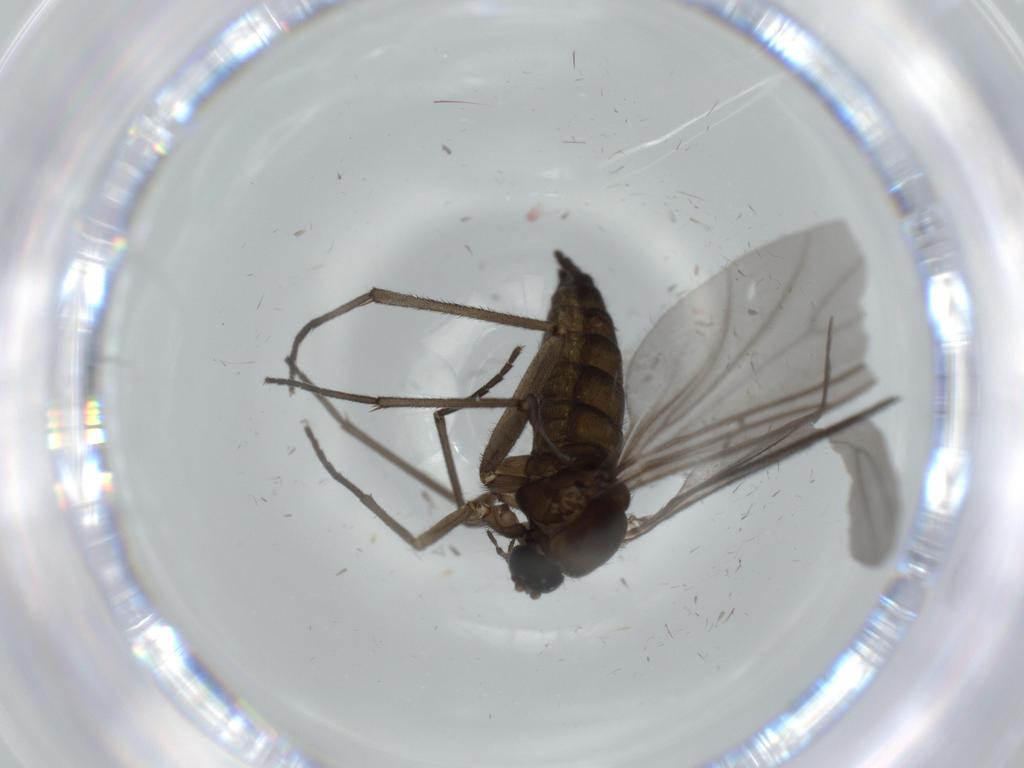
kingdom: Animalia
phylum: Arthropoda
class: Insecta
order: Diptera
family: Sciaridae
